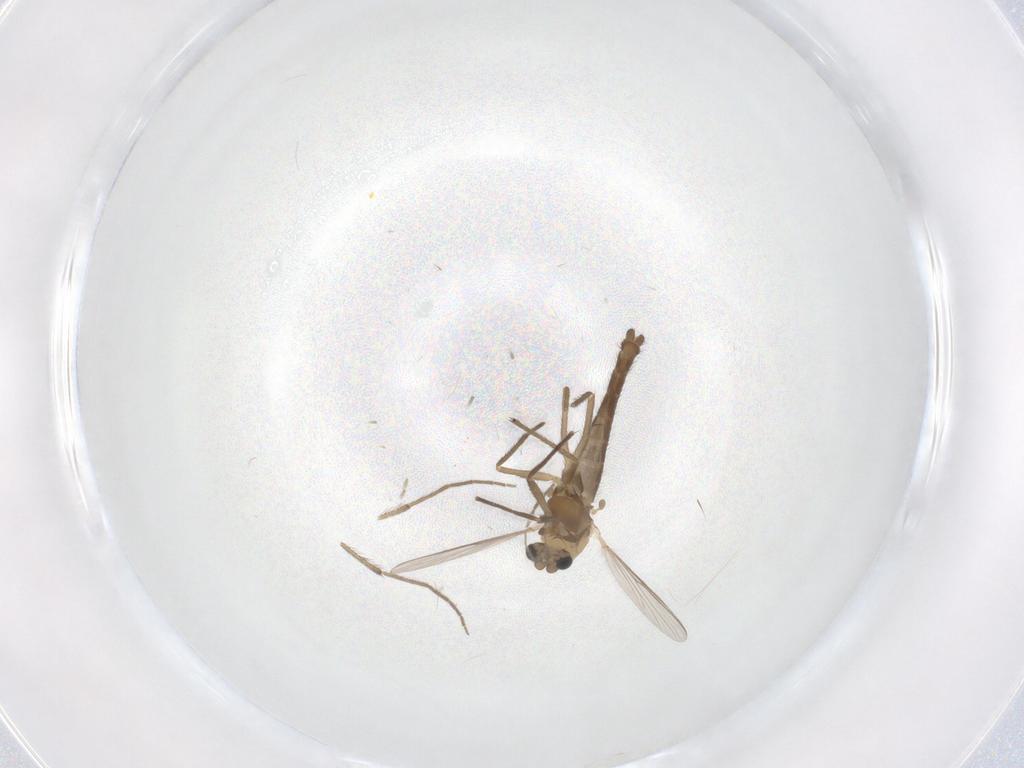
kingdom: Animalia
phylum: Arthropoda
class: Insecta
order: Diptera
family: Chironomidae
